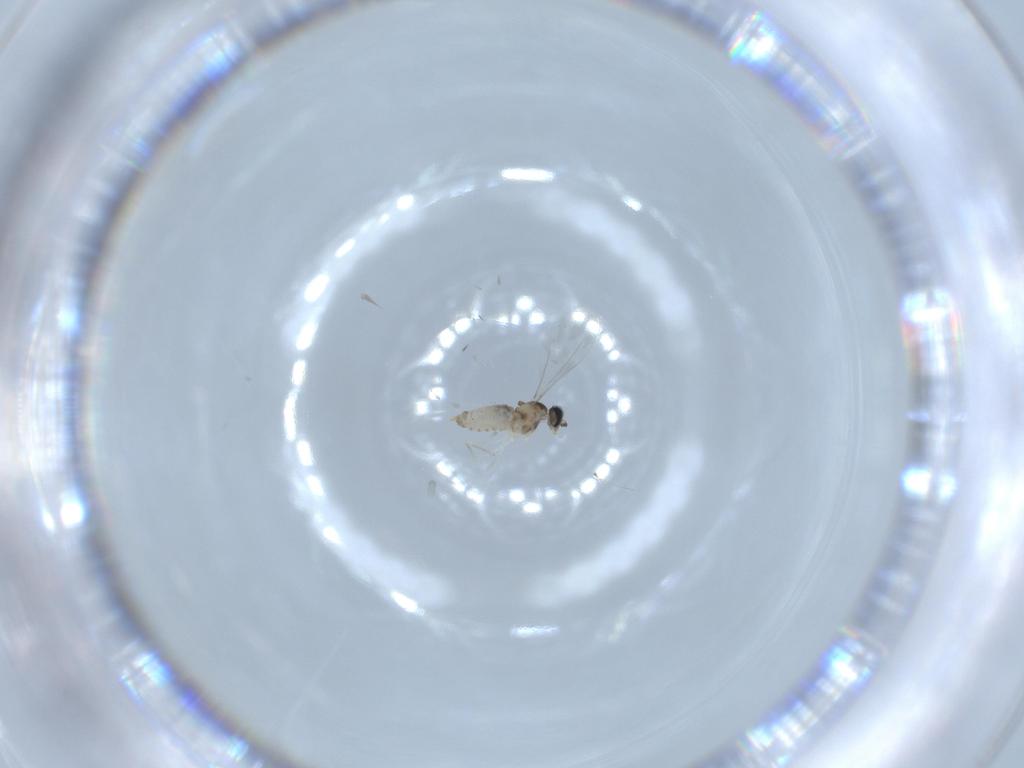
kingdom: Animalia
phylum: Arthropoda
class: Insecta
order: Diptera
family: Cecidomyiidae
